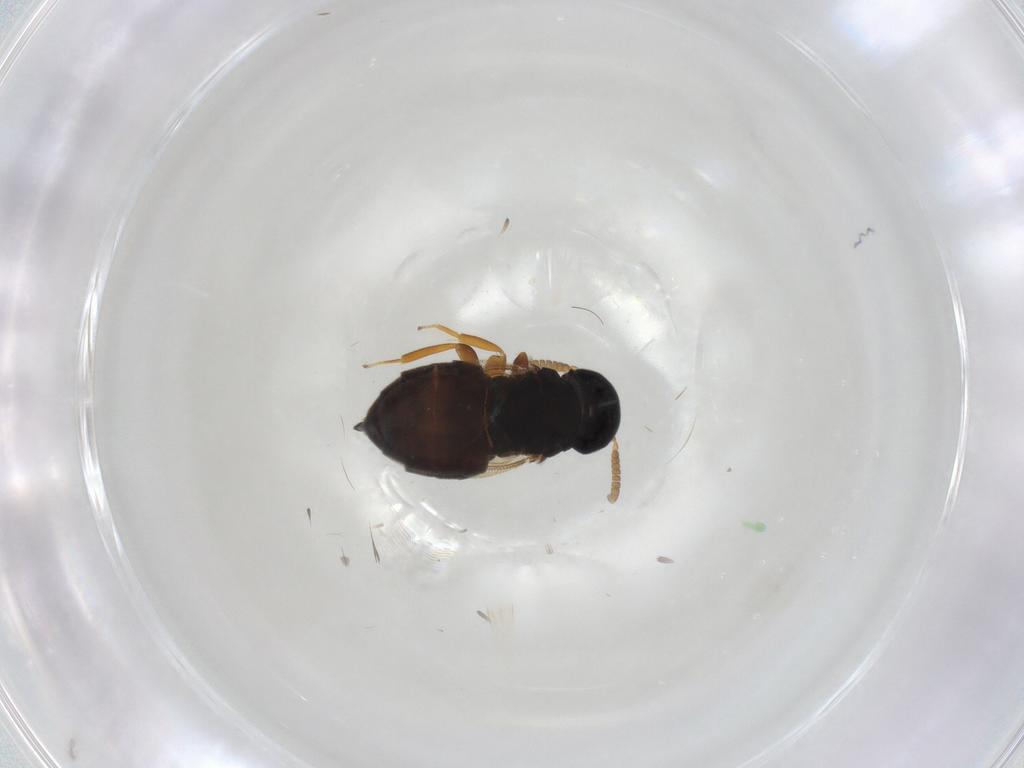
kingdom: Animalia
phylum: Arthropoda
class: Insecta
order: Hymenoptera
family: Pteromalidae
